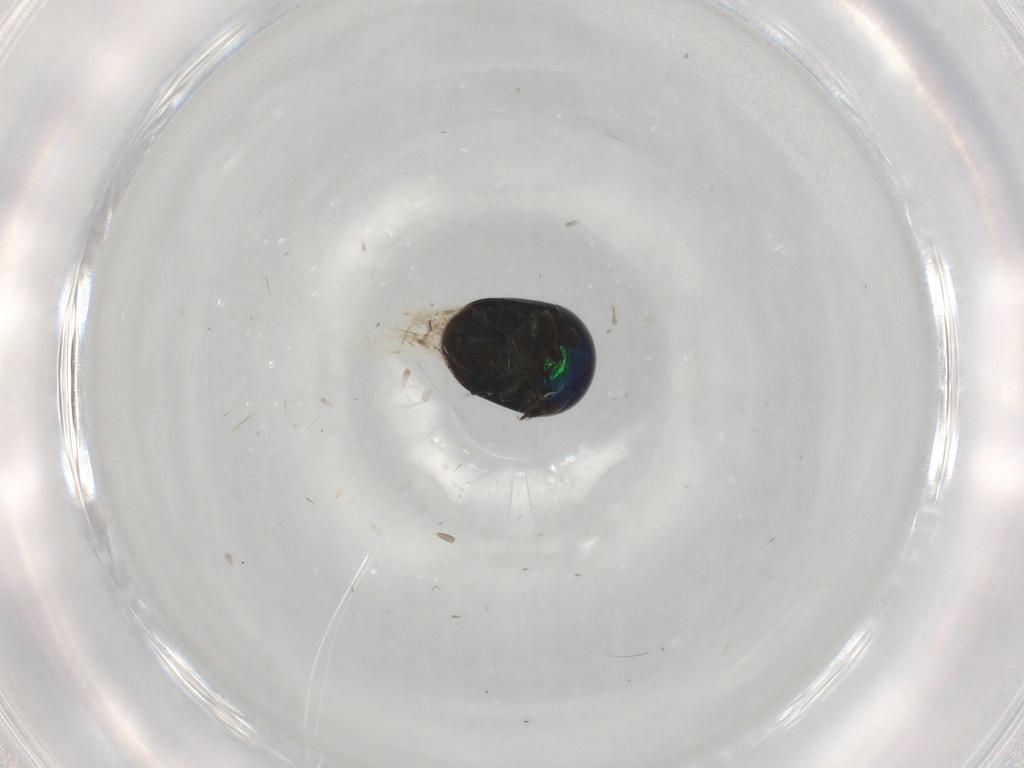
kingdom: Animalia
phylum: Arthropoda
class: Insecta
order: Coleoptera
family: Cybocephalidae
